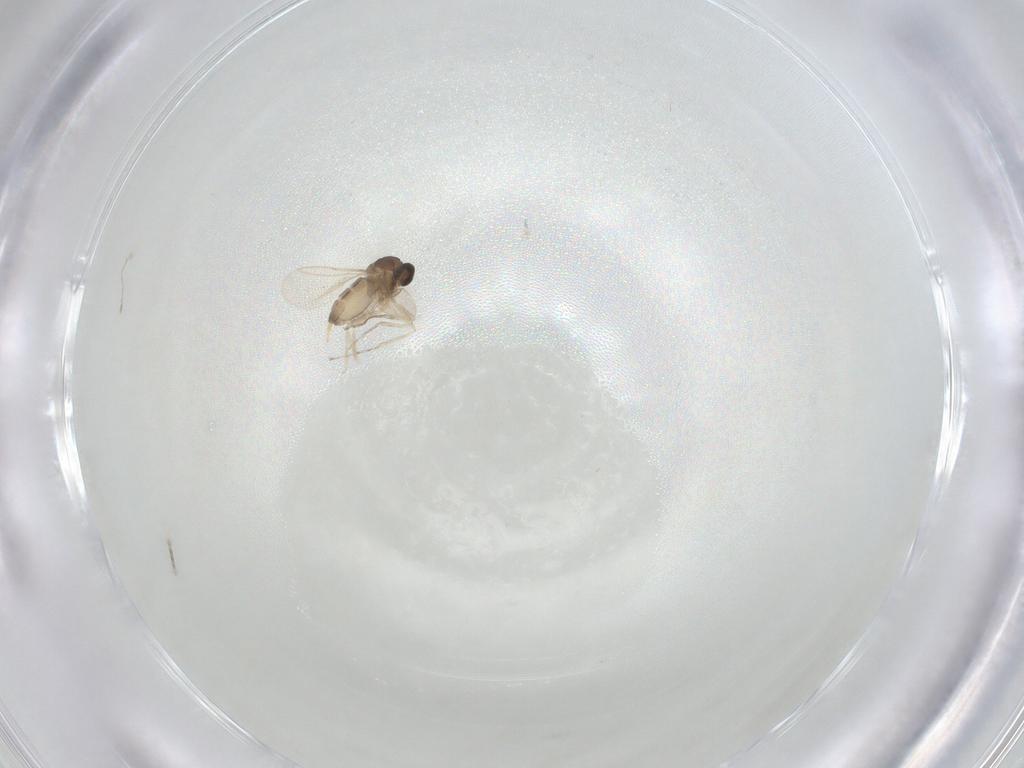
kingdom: Animalia
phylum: Arthropoda
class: Insecta
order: Diptera
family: Cecidomyiidae
